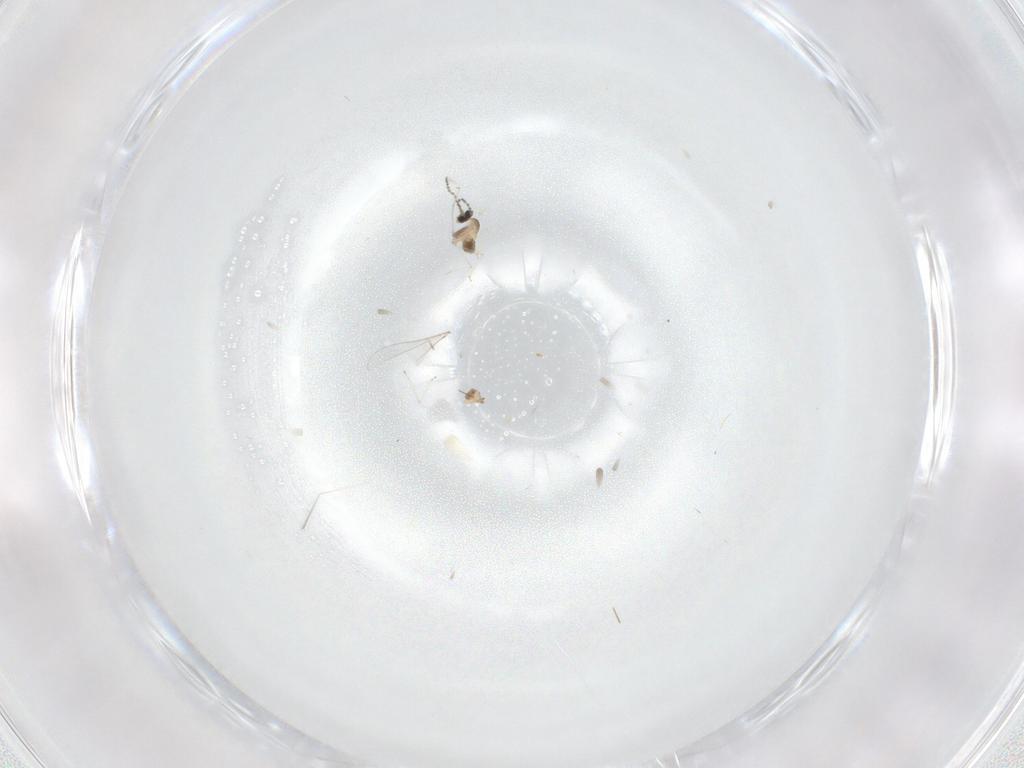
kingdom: Animalia
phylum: Arthropoda
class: Insecta
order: Diptera
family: Cecidomyiidae
